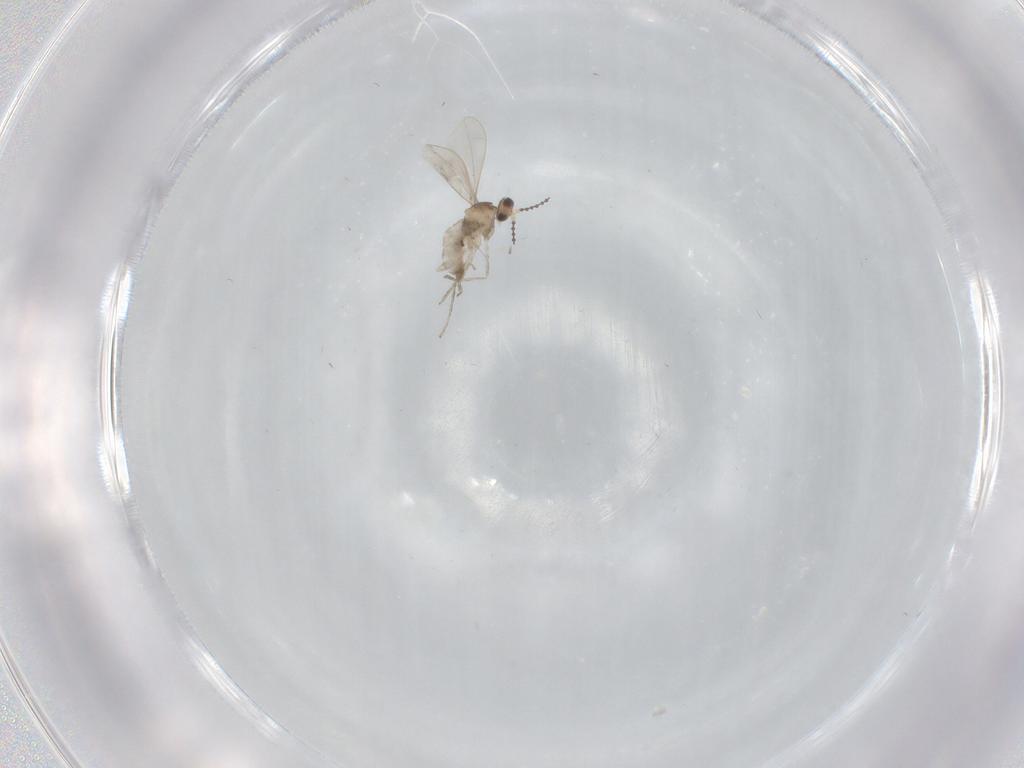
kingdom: Animalia
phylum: Arthropoda
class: Insecta
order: Diptera
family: Cecidomyiidae
